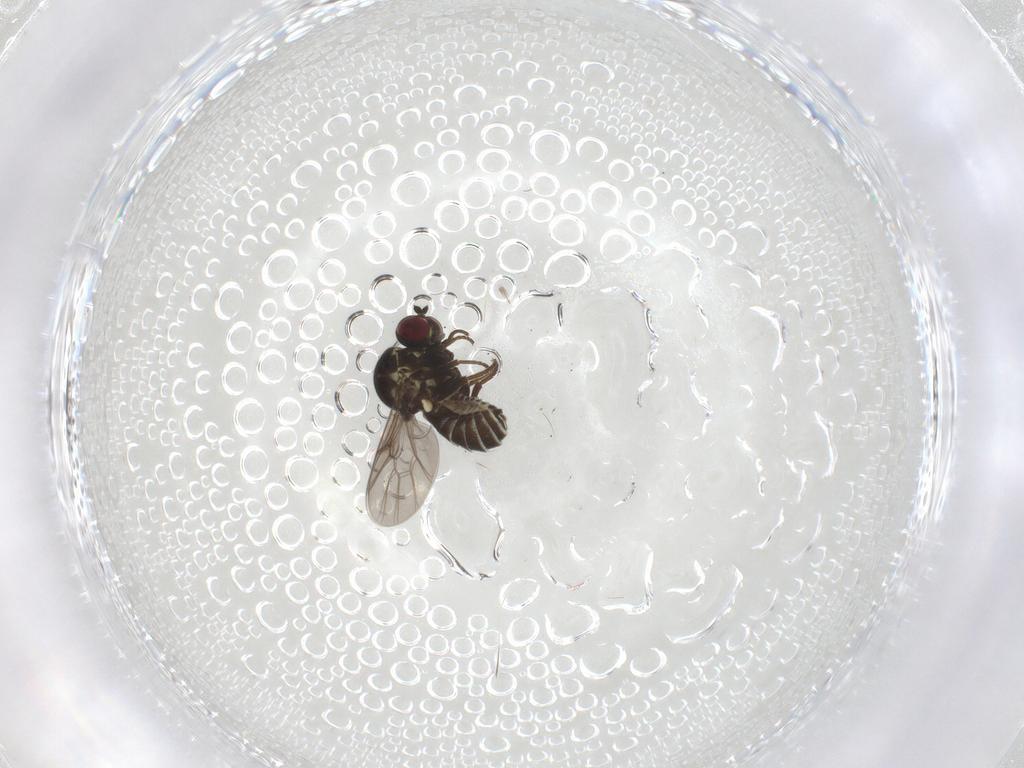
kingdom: Animalia
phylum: Arthropoda
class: Insecta
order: Diptera
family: Bombyliidae
